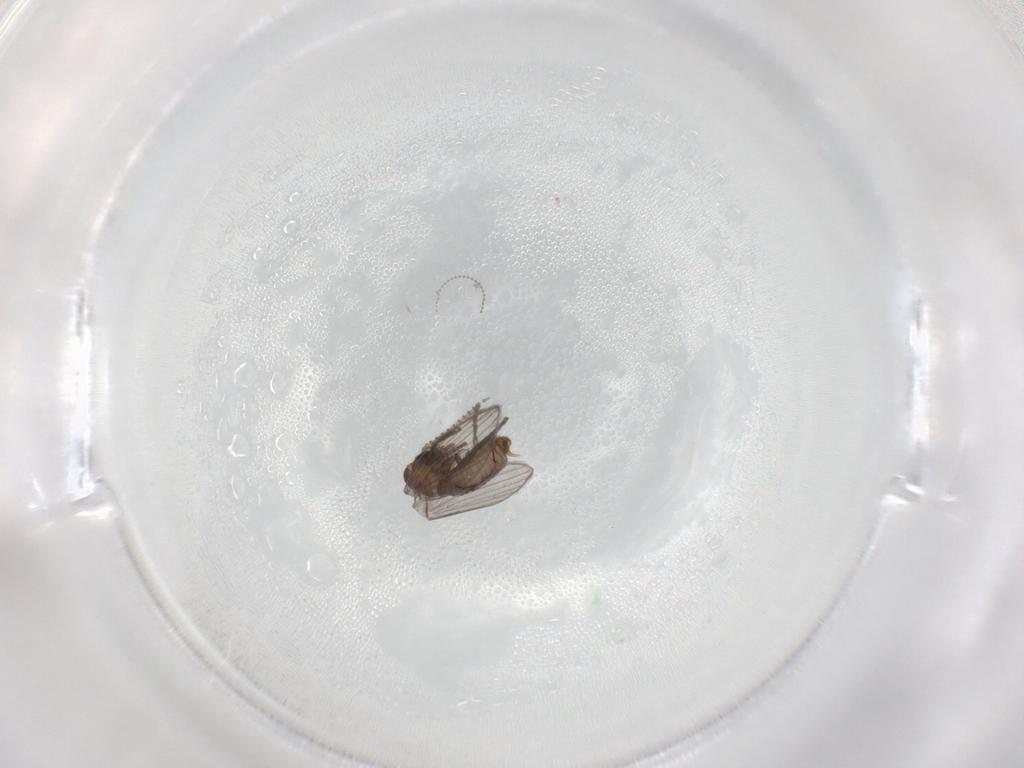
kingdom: Animalia
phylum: Arthropoda
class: Insecta
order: Diptera
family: Psychodidae
